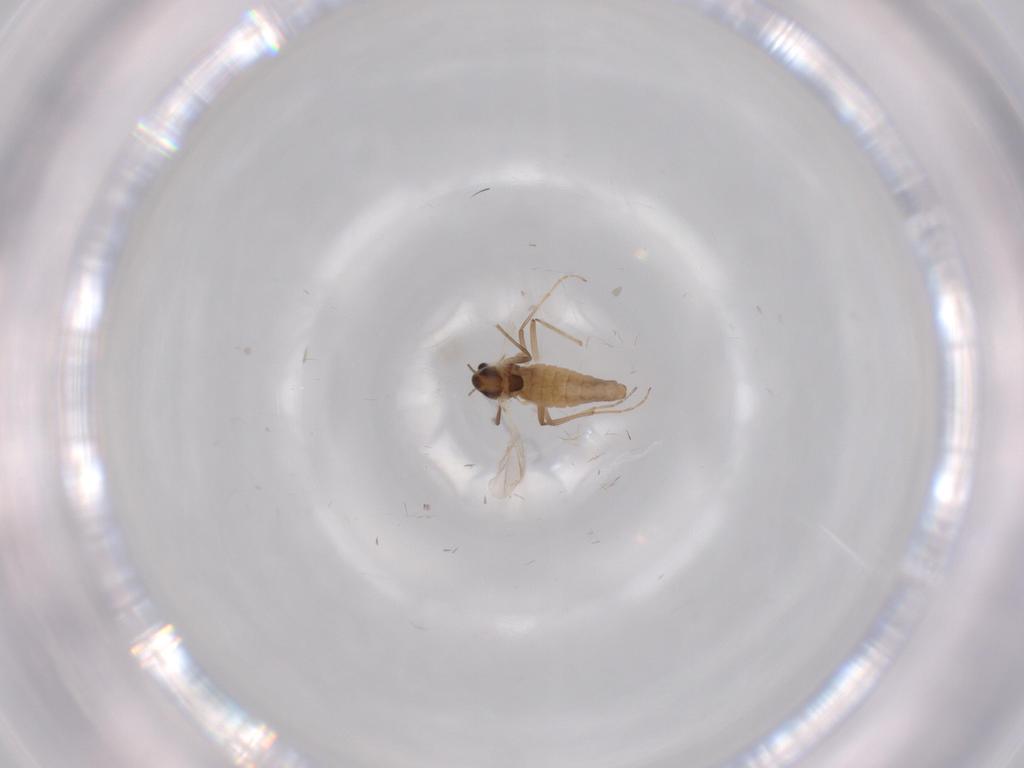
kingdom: Animalia
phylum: Arthropoda
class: Insecta
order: Diptera
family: Chironomidae
